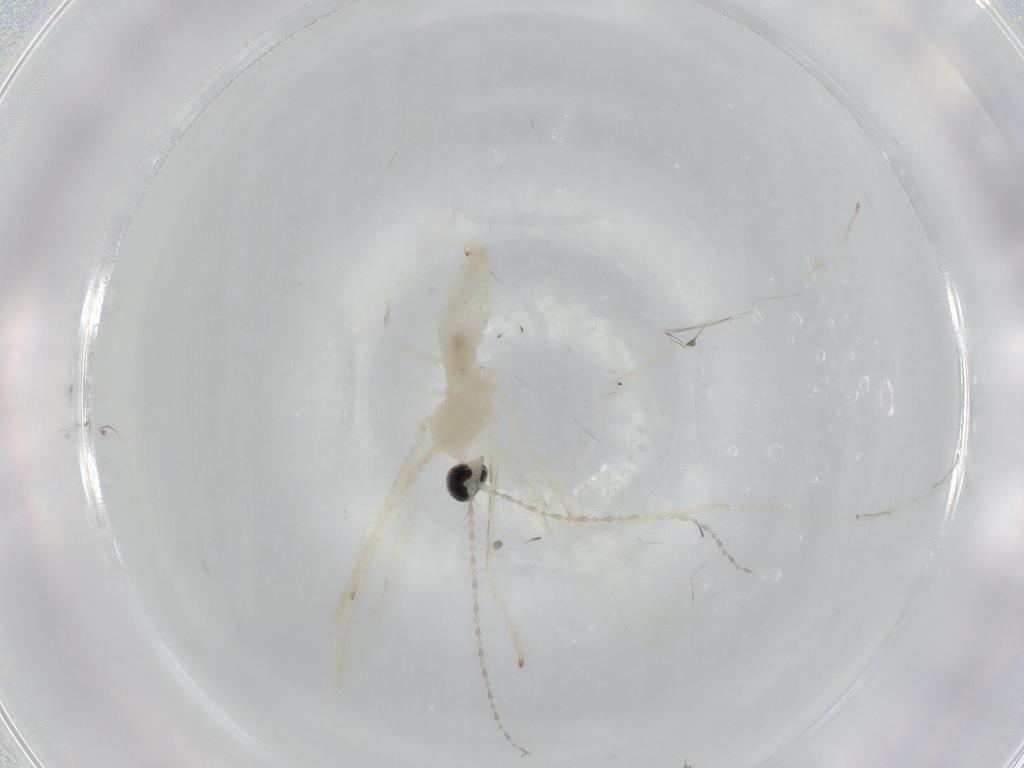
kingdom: Animalia
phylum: Arthropoda
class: Insecta
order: Diptera
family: Cecidomyiidae
